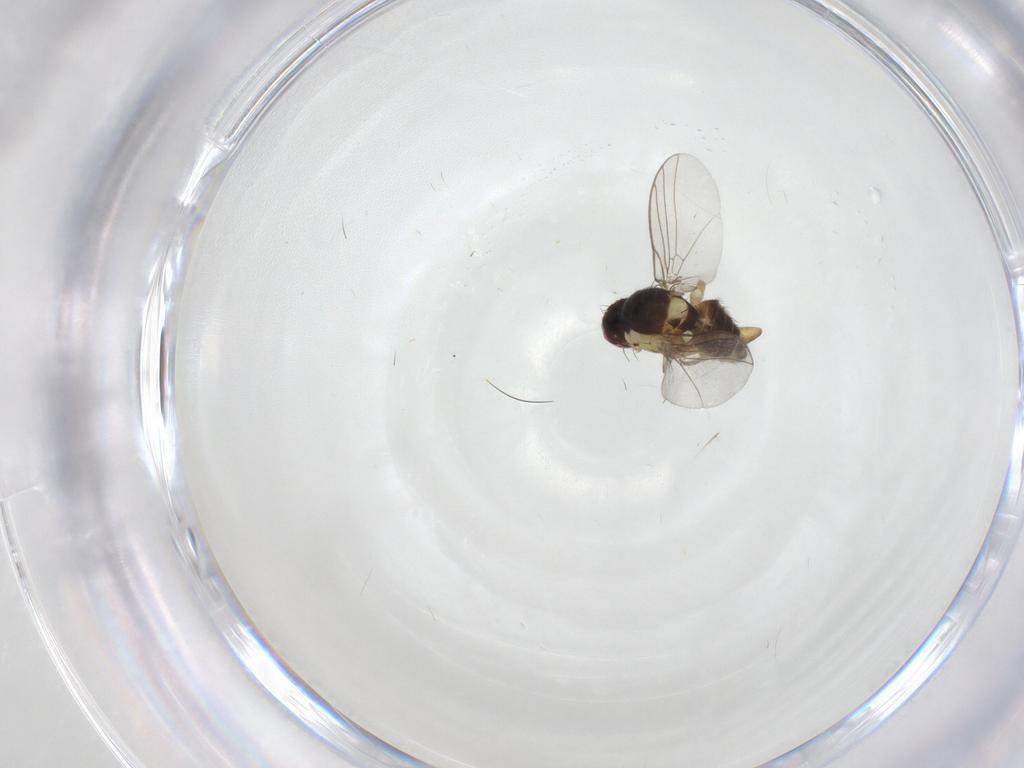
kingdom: Animalia
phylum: Arthropoda
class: Insecta
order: Diptera
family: Agromyzidae
